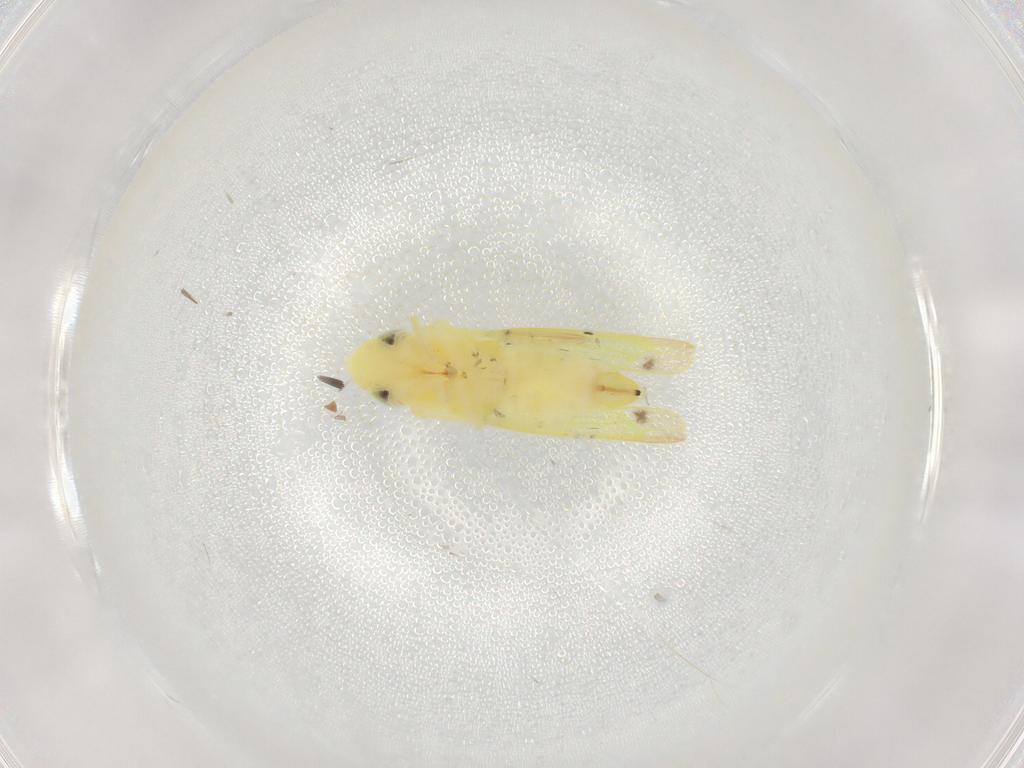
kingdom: Animalia
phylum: Arthropoda
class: Insecta
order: Hemiptera
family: Cicadellidae
